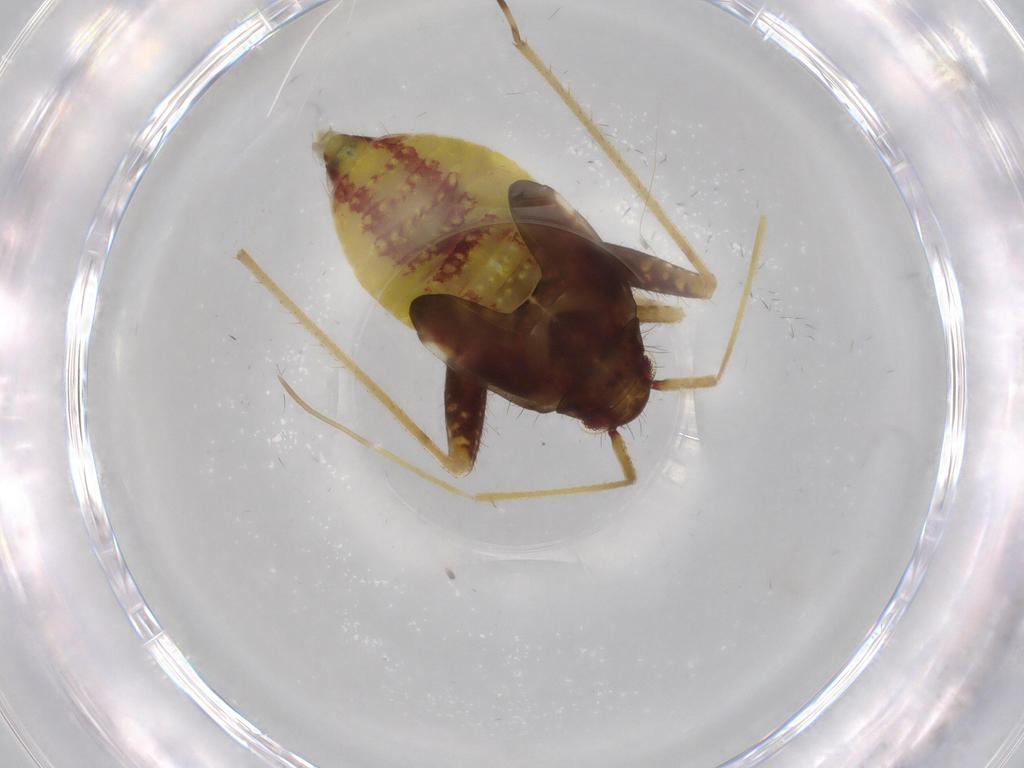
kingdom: Animalia
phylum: Arthropoda
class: Insecta
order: Hemiptera
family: Miridae
